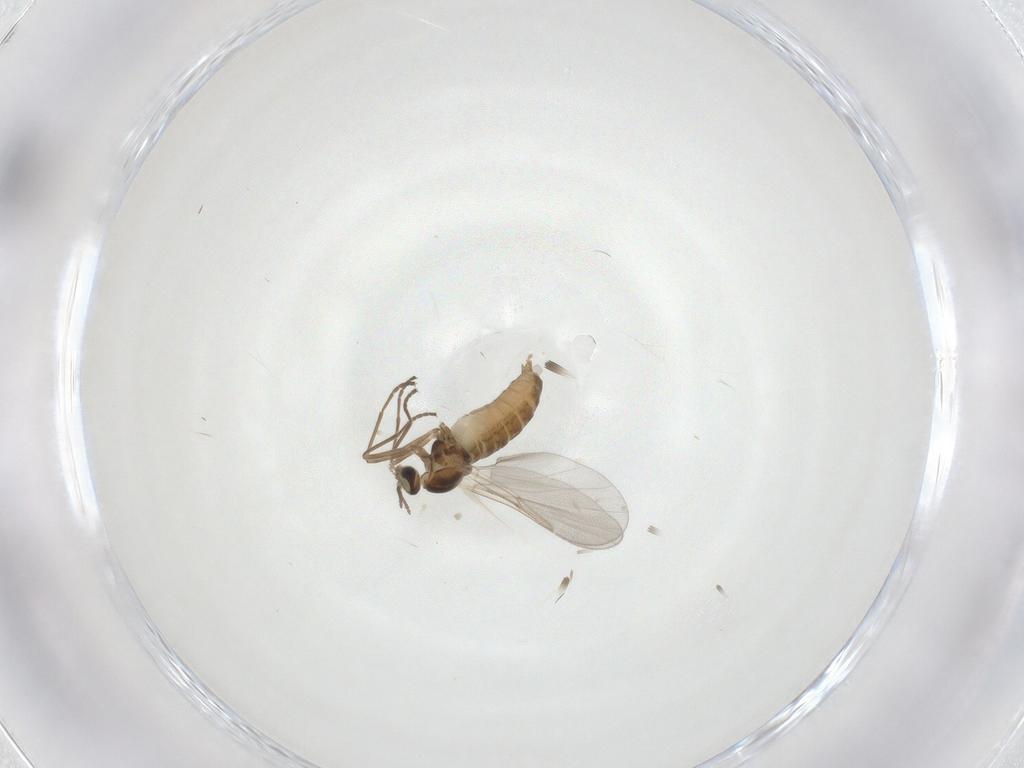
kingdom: Animalia
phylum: Arthropoda
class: Insecta
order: Diptera
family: Cecidomyiidae
